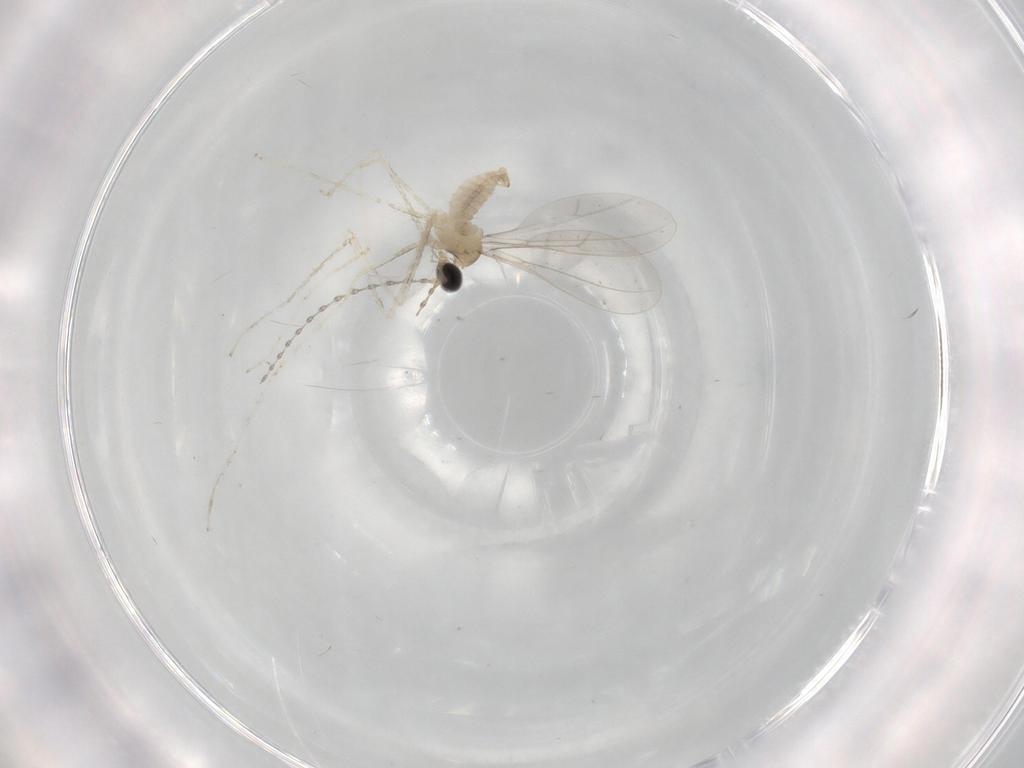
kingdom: Animalia
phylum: Arthropoda
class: Insecta
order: Diptera
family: Cecidomyiidae
